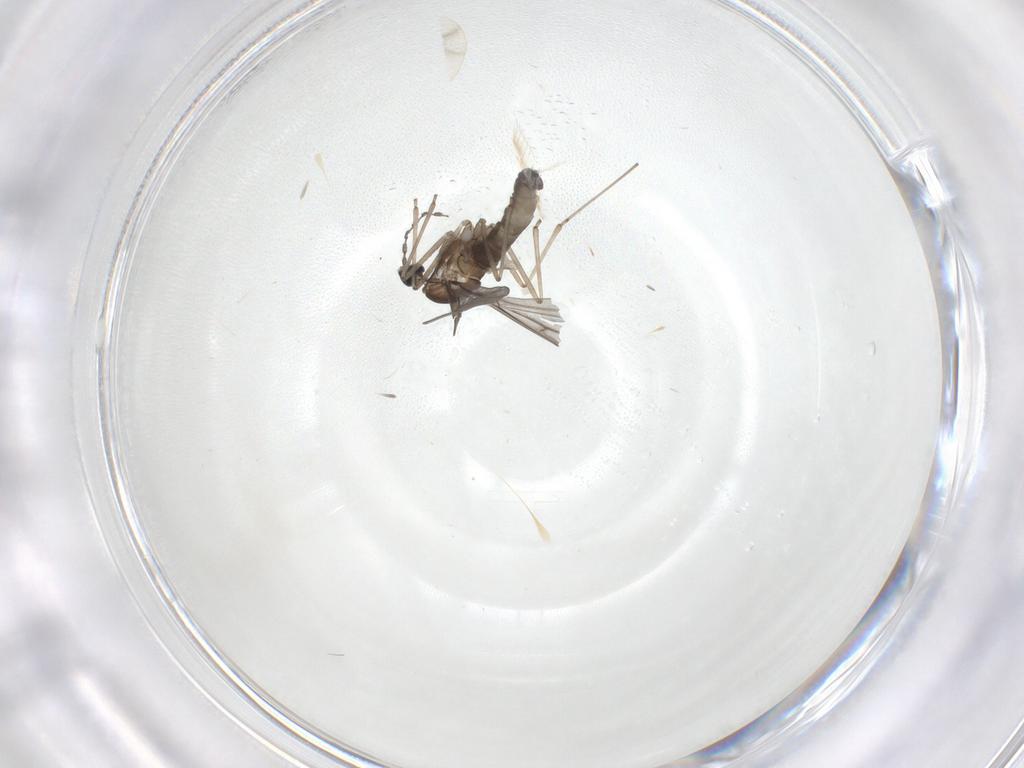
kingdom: Animalia
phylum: Arthropoda
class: Insecta
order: Diptera
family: Cecidomyiidae
